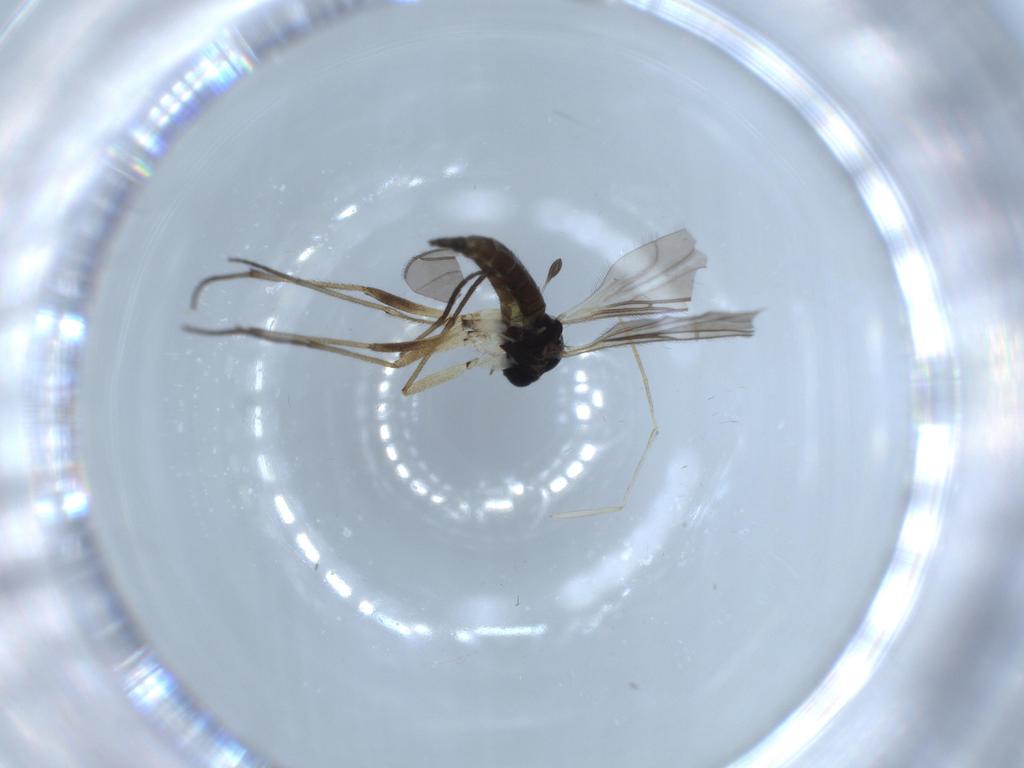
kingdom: Animalia
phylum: Arthropoda
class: Insecta
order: Diptera
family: Sciaridae
